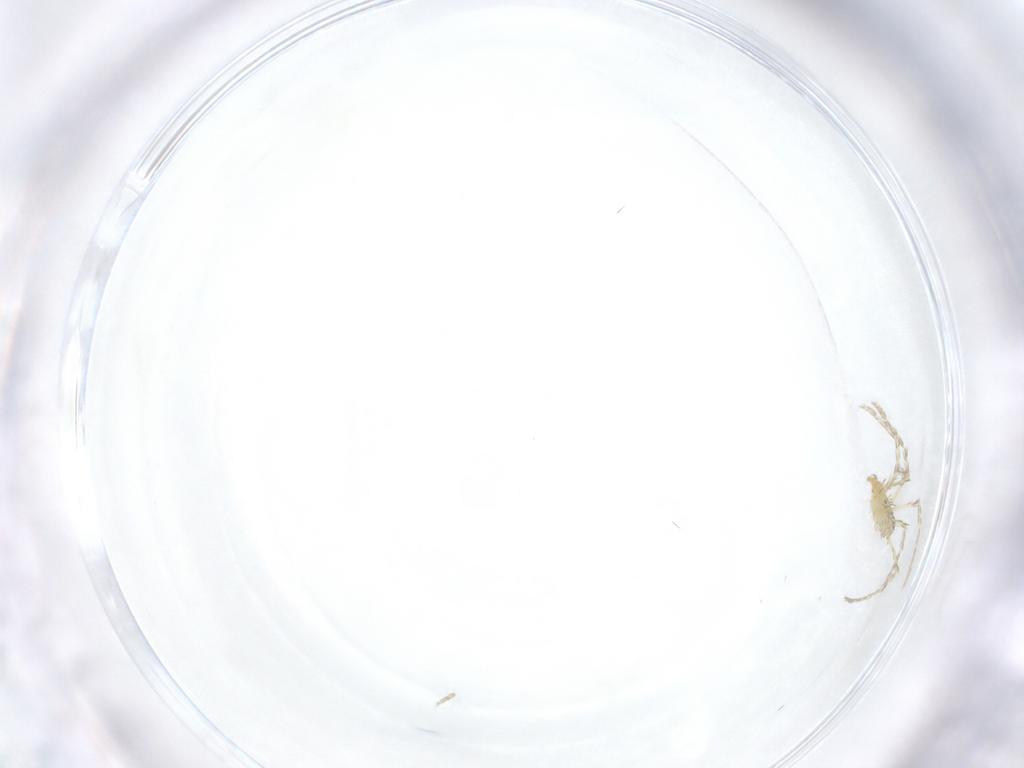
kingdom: Animalia
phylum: Arthropoda
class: Arachnida
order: Trombidiformes
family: Erythraeidae
